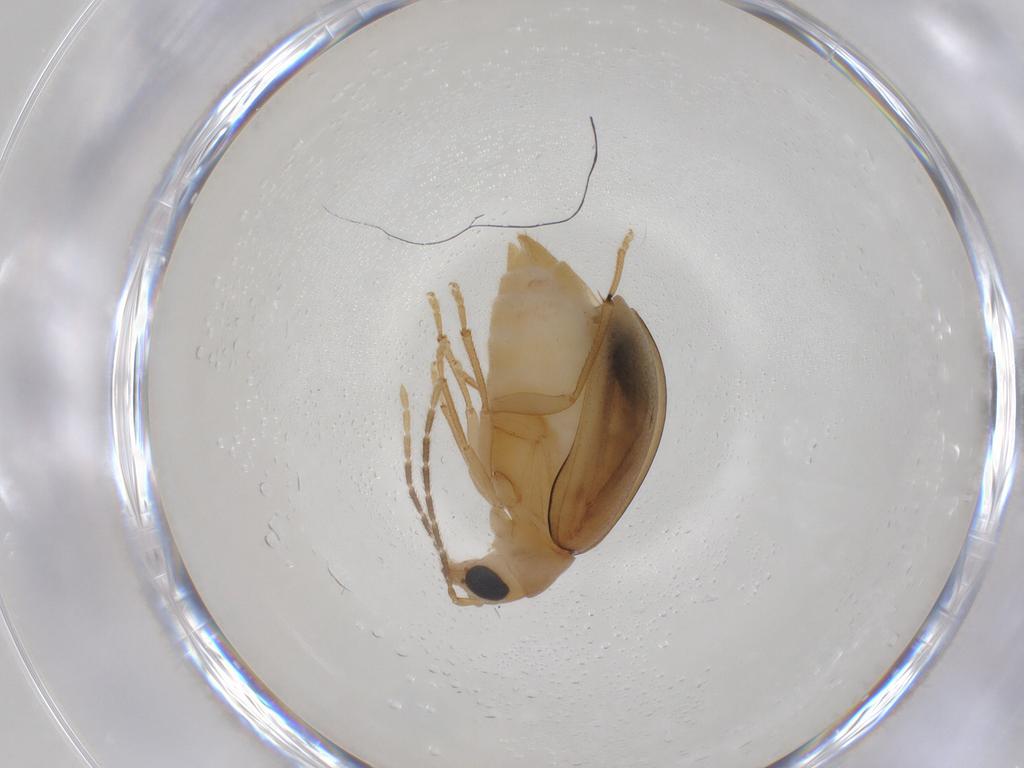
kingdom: Animalia
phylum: Arthropoda
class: Insecta
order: Coleoptera
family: Chrysomelidae
